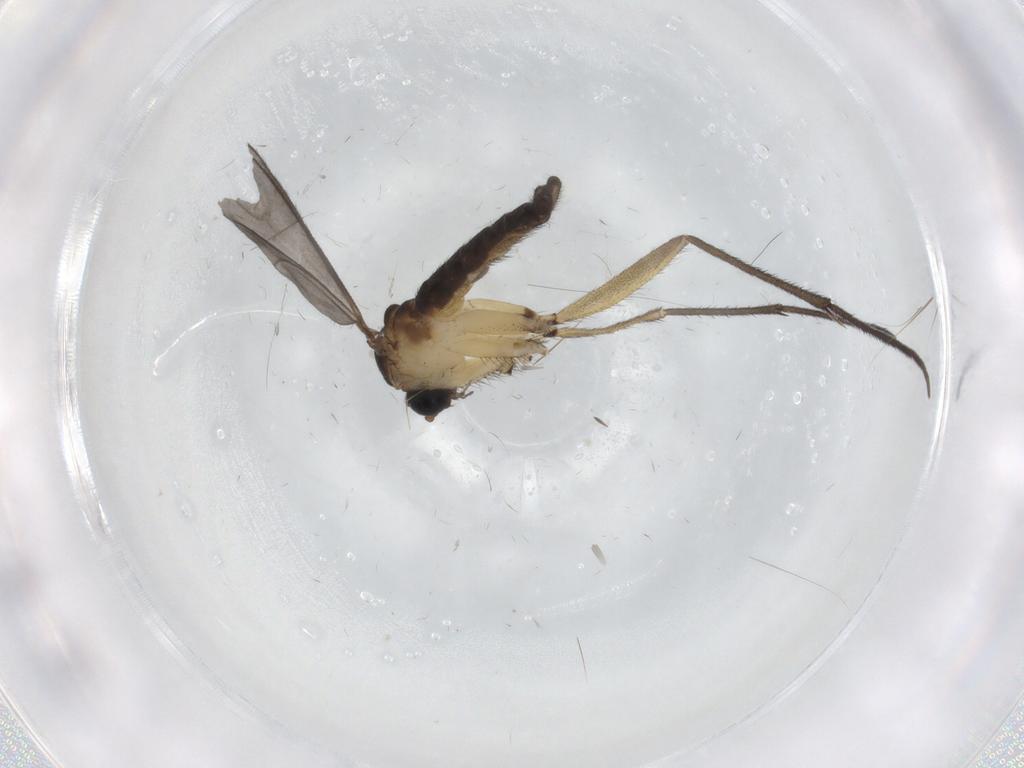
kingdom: Animalia
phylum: Arthropoda
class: Insecta
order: Diptera
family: Sciaridae
